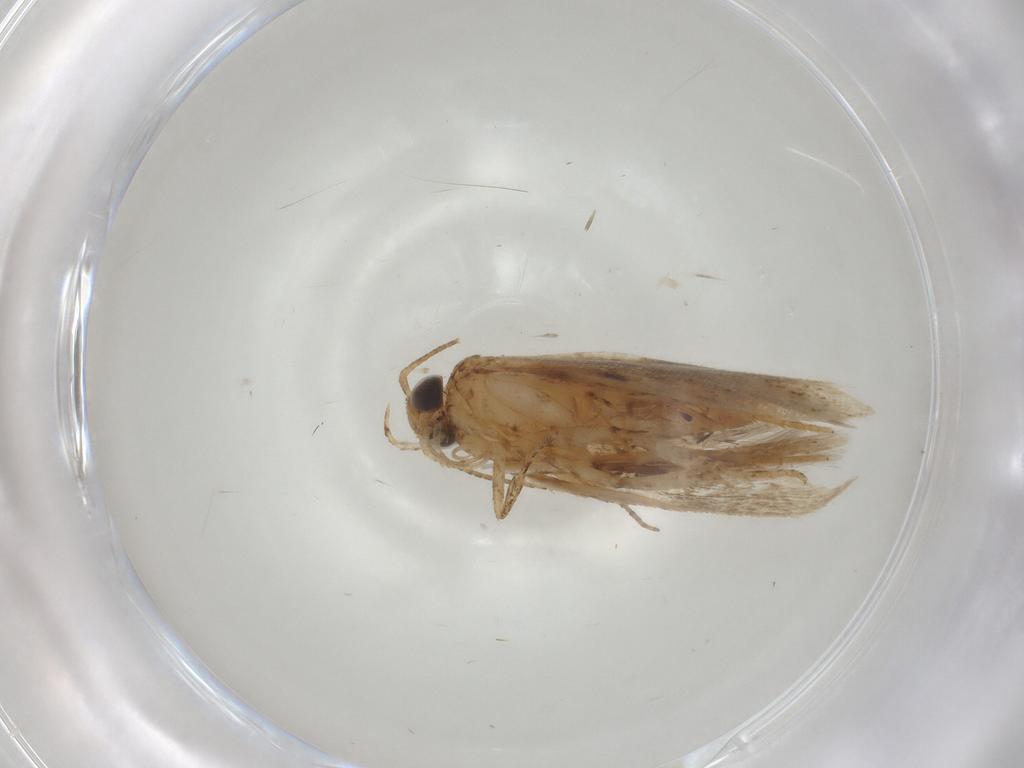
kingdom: Animalia
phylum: Arthropoda
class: Insecta
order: Lepidoptera
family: Gelechiidae
